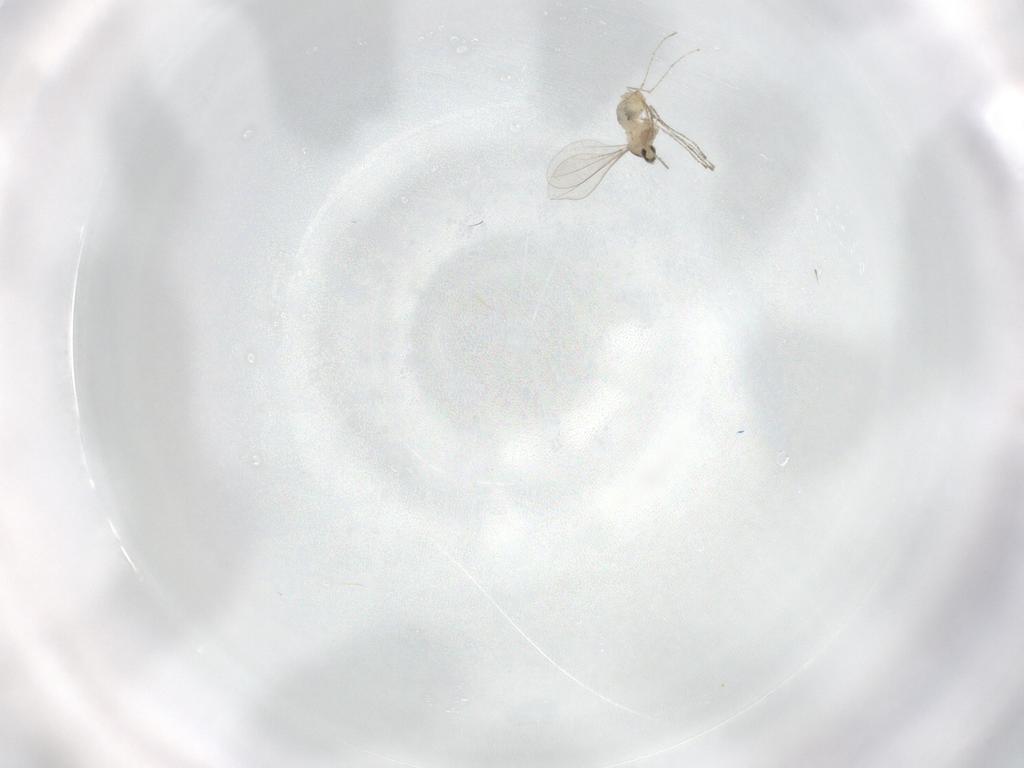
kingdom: Animalia
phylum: Arthropoda
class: Insecta
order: Diptera
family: Cecidomyiidae
